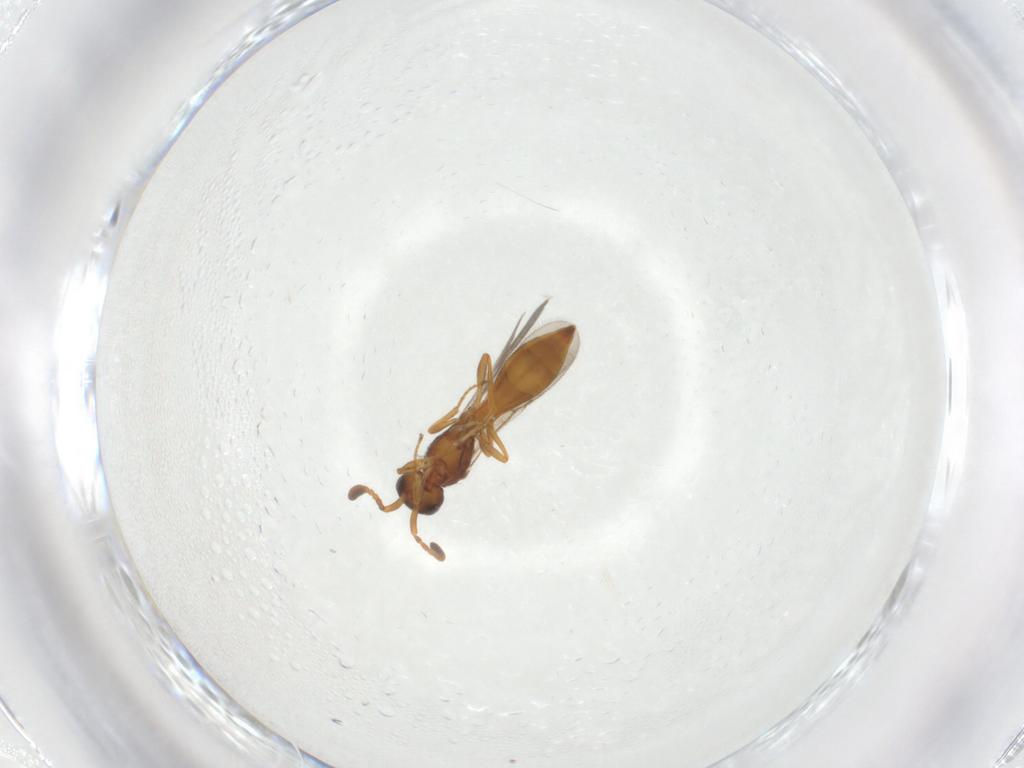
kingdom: Animalia
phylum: Arthropoda
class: Insecta
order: Hymenoptera
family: Scelionidae
